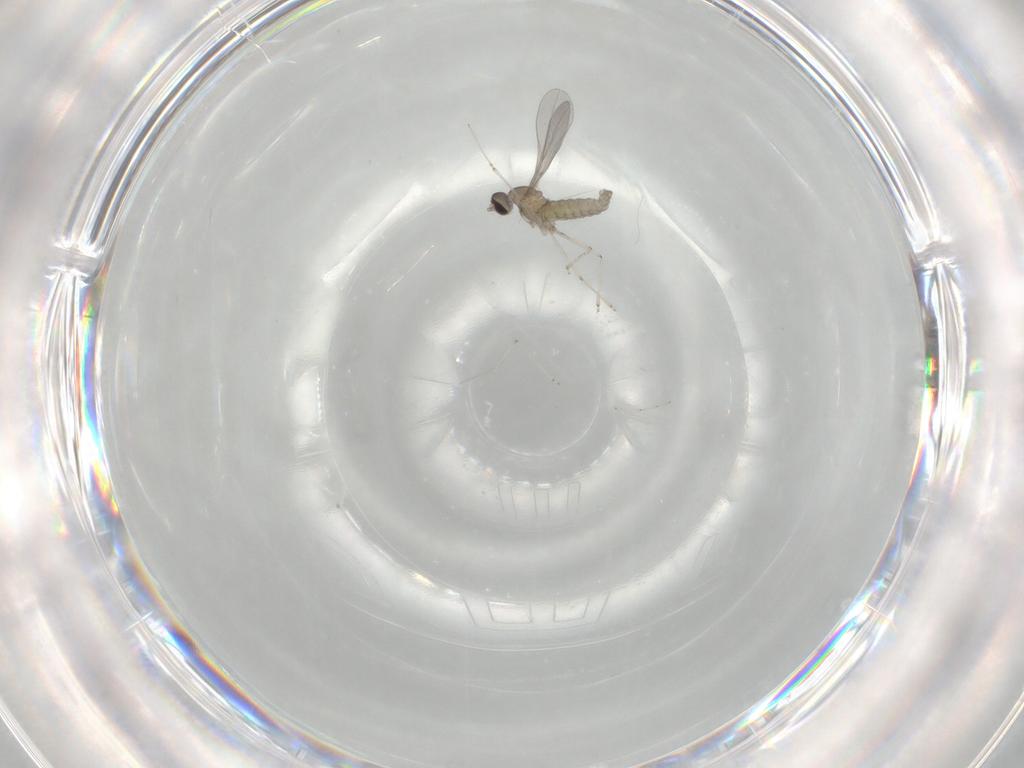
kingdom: Animalia
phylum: Arthropoda
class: Insecta
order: Diptera
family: Cecidomyiidae
